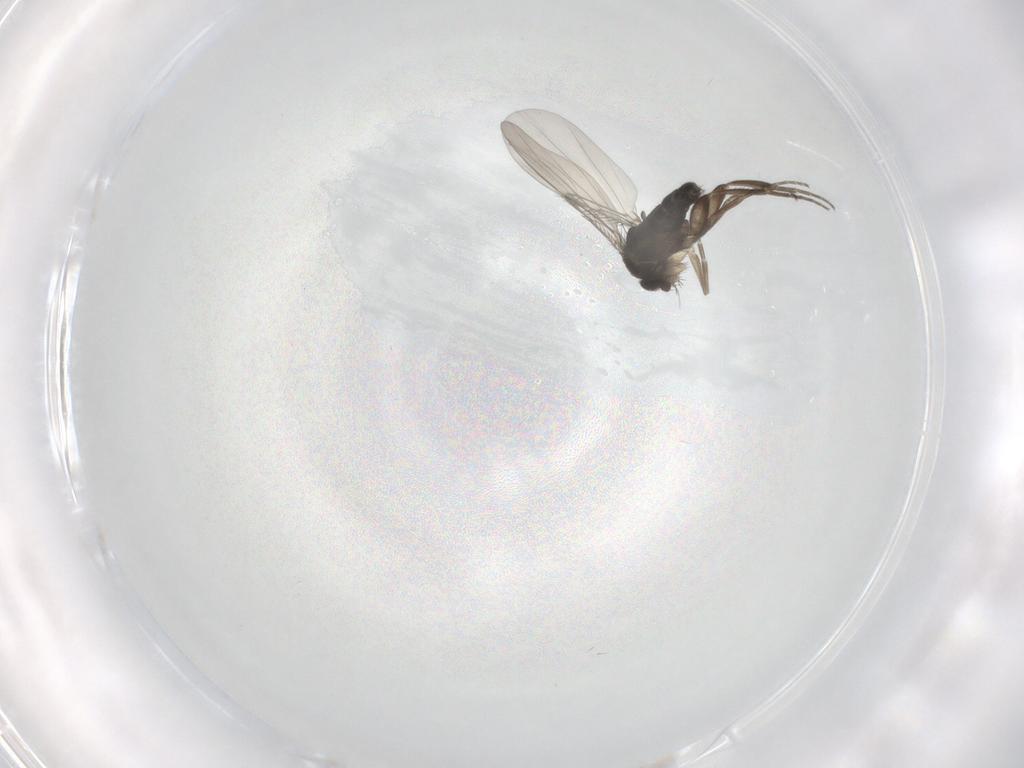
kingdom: Animalia
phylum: Arthropoda
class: Insecta
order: Diptera
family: Phoridae
